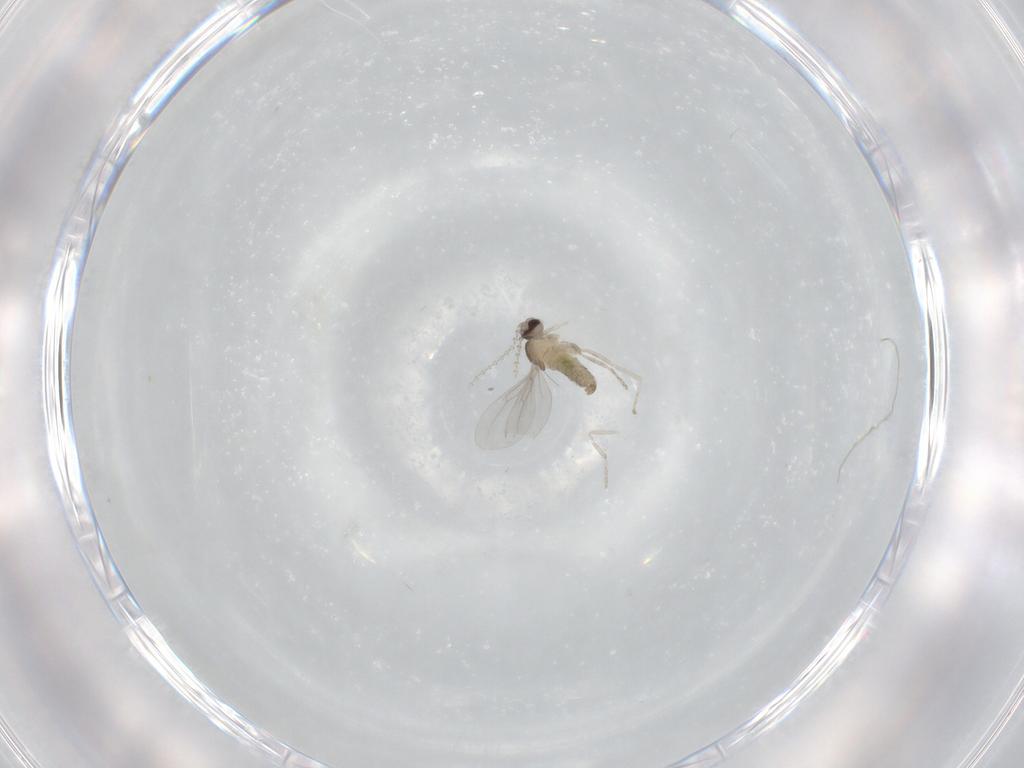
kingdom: Animalia
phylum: Arthropoda
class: Insecta
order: Diptera
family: Cecidomyiidae
